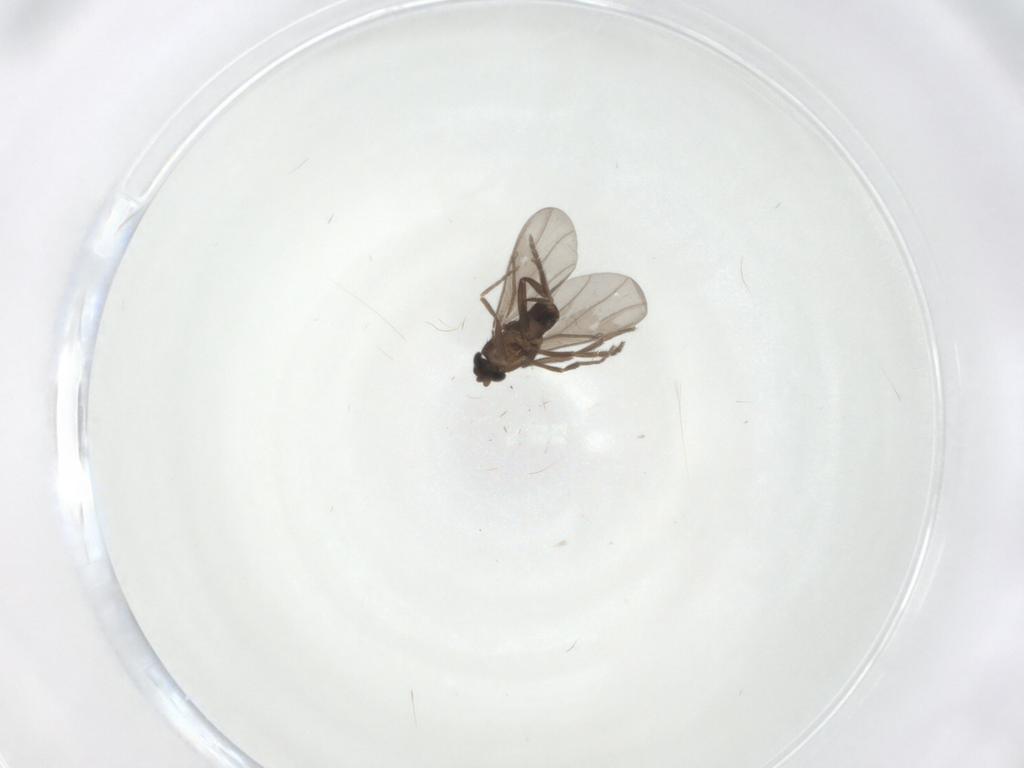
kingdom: Animalia
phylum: Arthropoda
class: Insecta
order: Diptera
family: Phoridae
